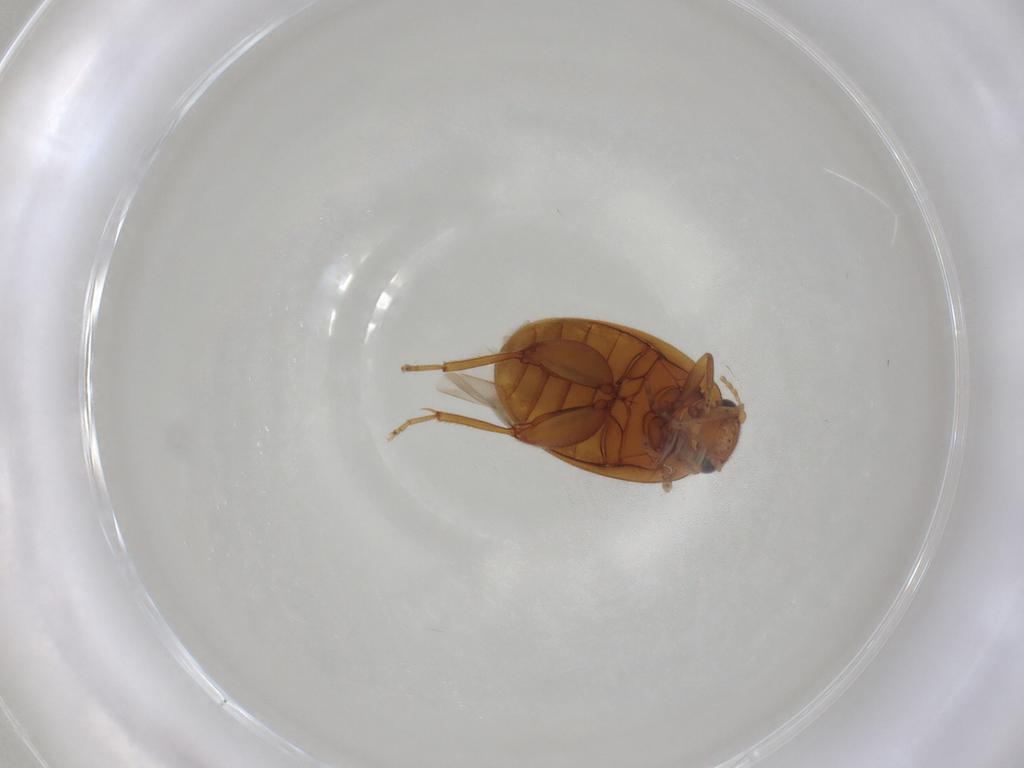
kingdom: Animalia
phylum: Arthropoda
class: Insecta
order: Coleoptera
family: Scirtidae
